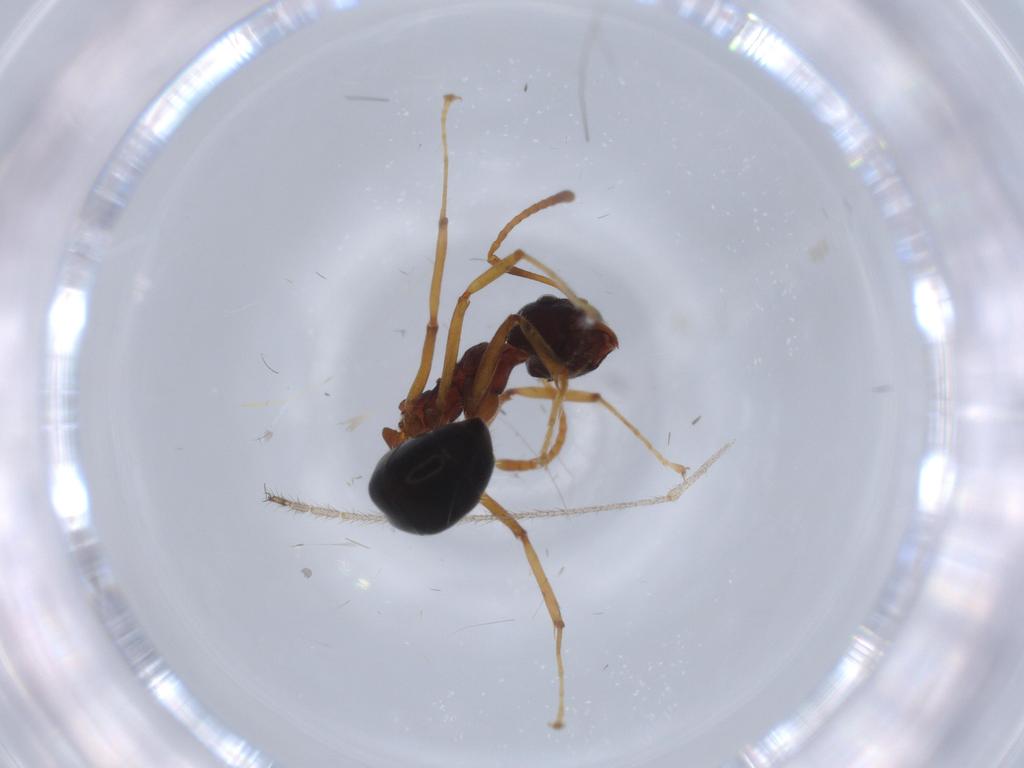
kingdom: Animalia
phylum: Arthropoda
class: Insecta
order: Hymenoptera
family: Formicidae
